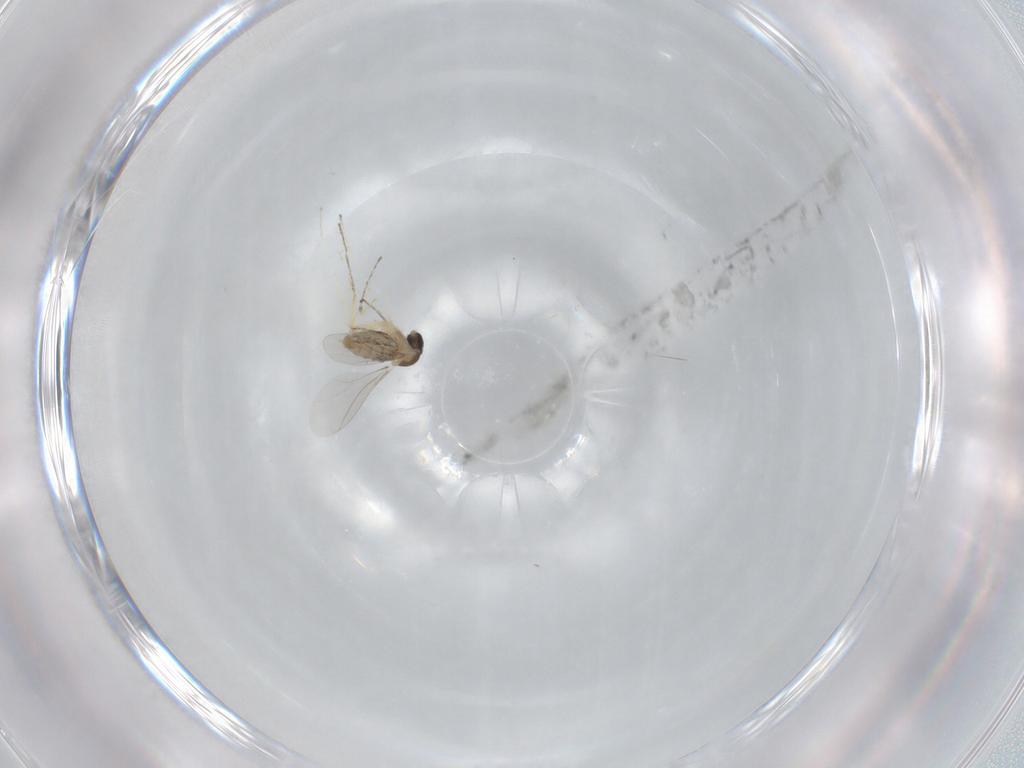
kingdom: Animalia
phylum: Arthropoda
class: Insecta
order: Diptera
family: Cecidomyiidae
